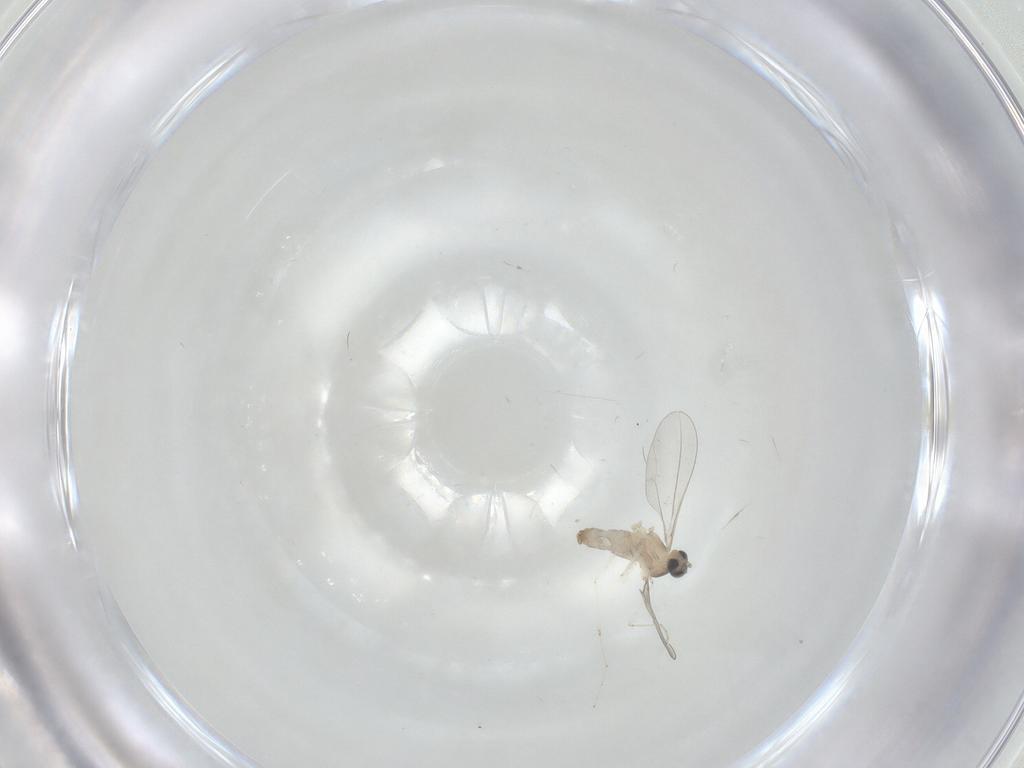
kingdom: Animalia
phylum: Arthropoda
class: Insecta
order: Diptera
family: Cecidomyiidae
